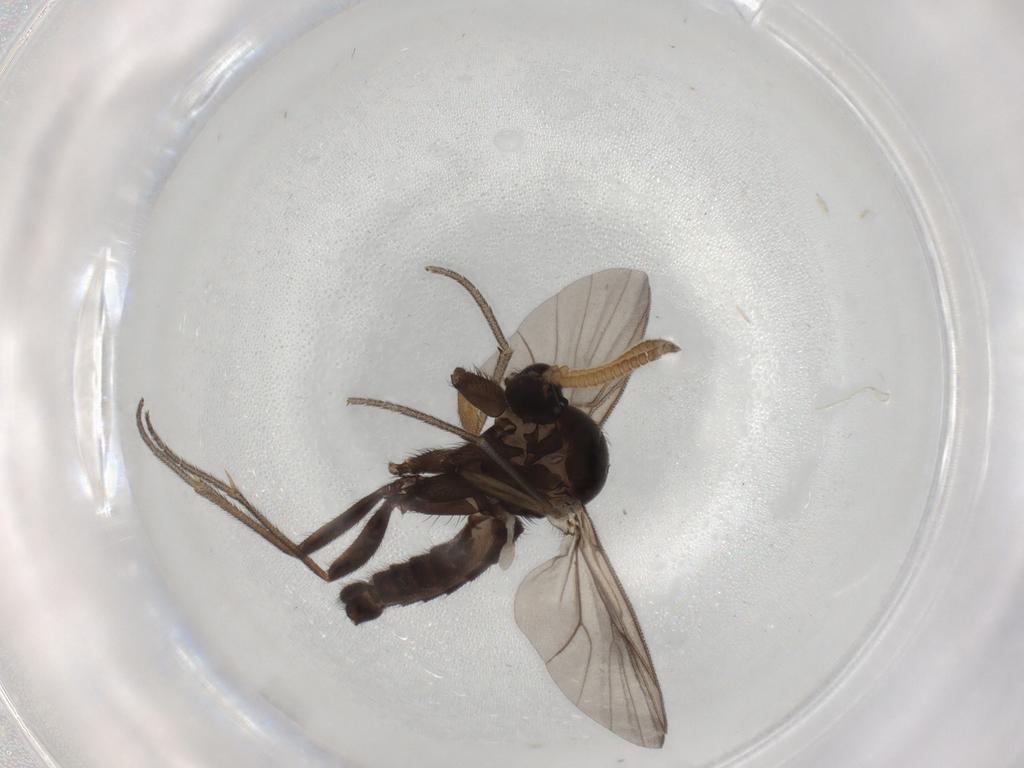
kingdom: Animalia
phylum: Arthropoda
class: Insecta
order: Diptera
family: Mycetophilidae
